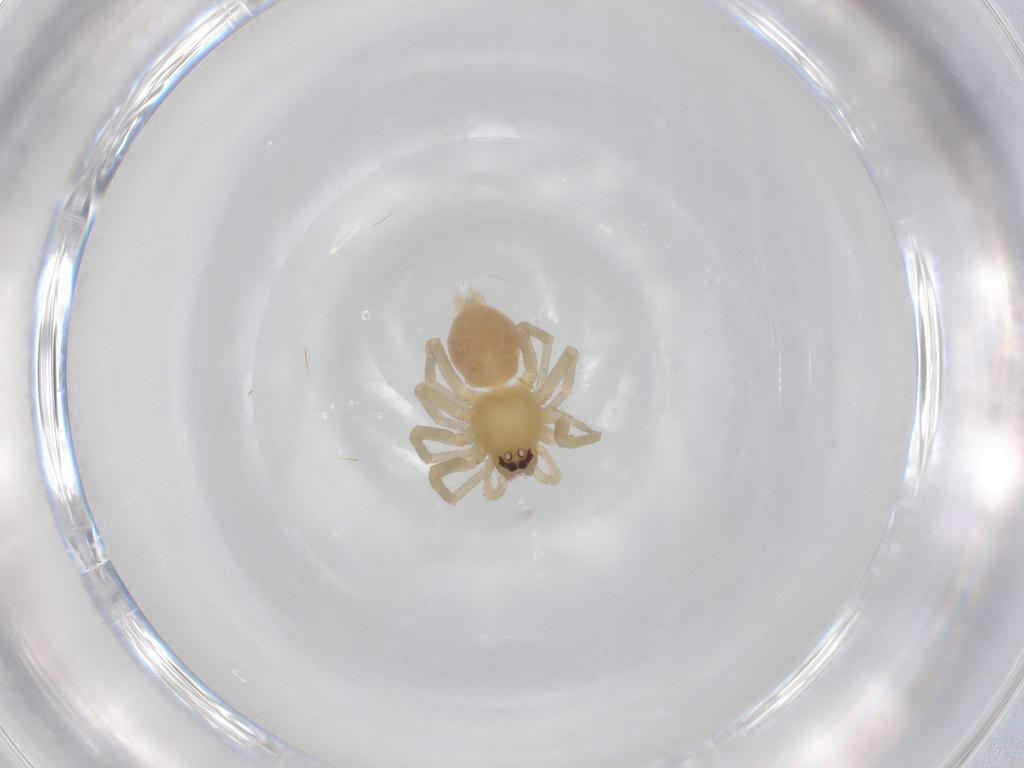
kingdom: Animalia
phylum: Arthropoda
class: Arachnida
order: Araneae
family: Cheiracanthiidae
